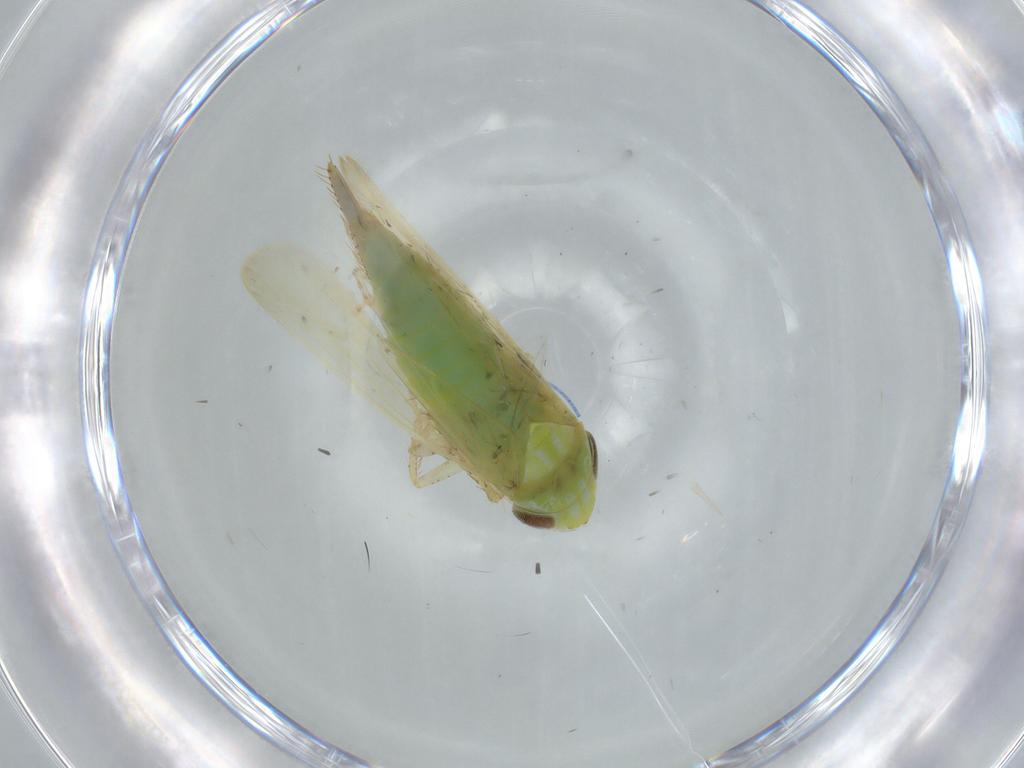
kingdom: Animalia
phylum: Arthropoda
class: Insecta
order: Hemiptera
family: Cicadellidae
